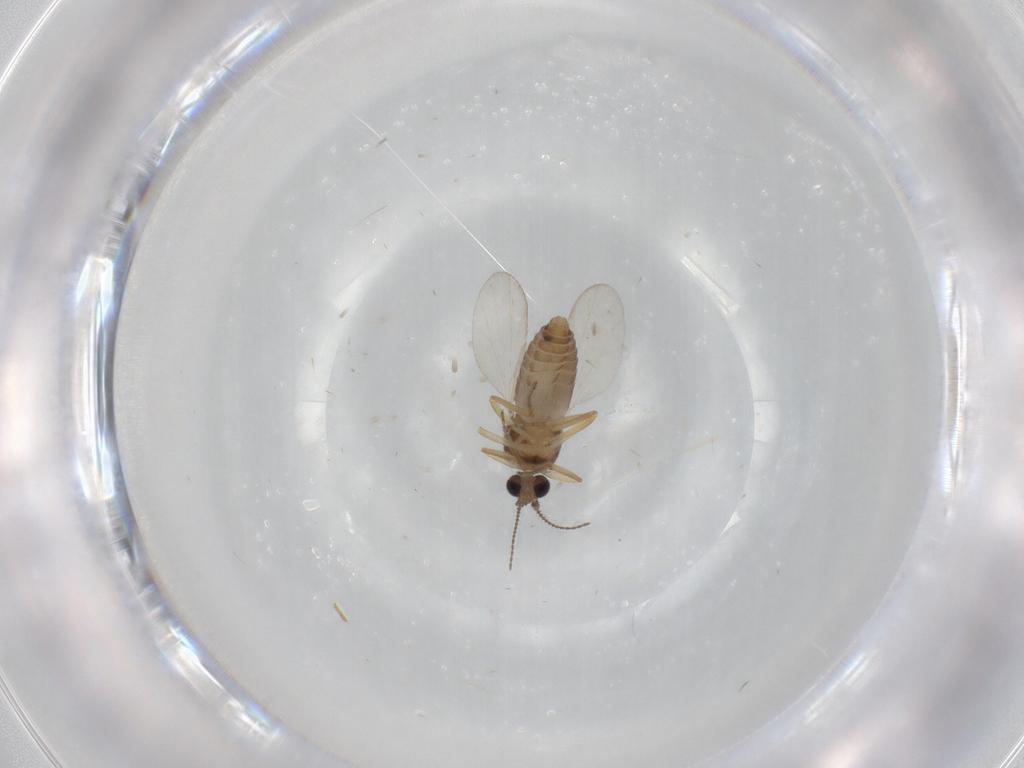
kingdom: Animalia
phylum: Arthropoda
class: Insecta
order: Diptera
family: Ceratopogonidae
